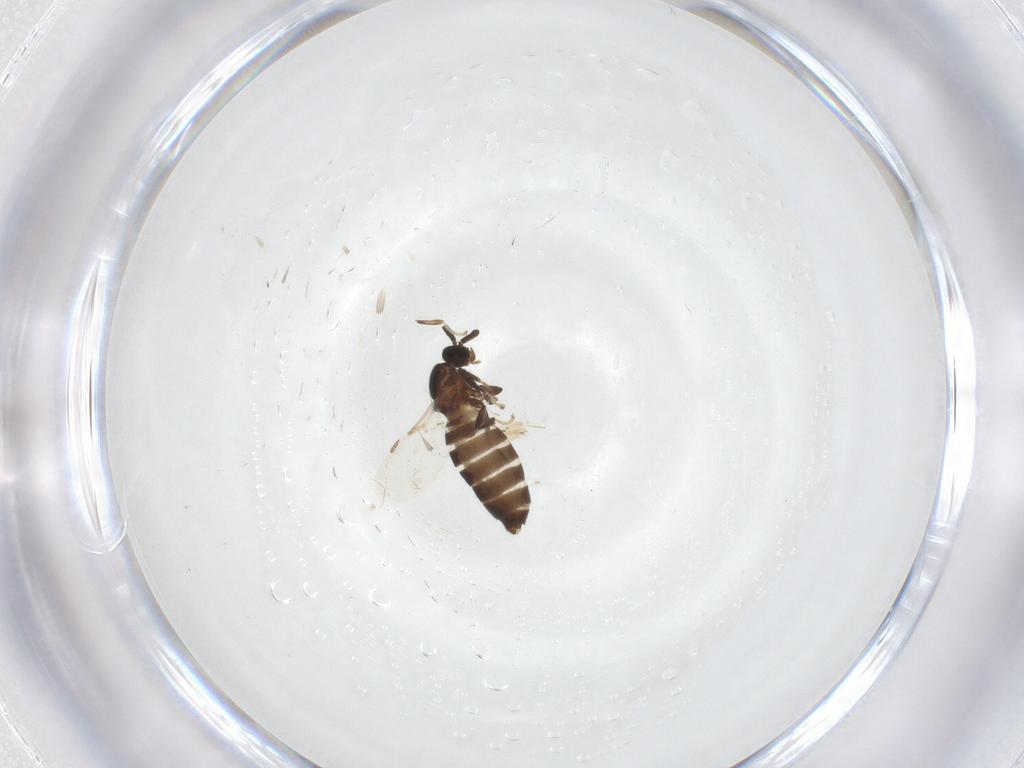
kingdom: Animalia
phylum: Arthropoda
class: Insecta
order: Diptera
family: Scatopsidae
